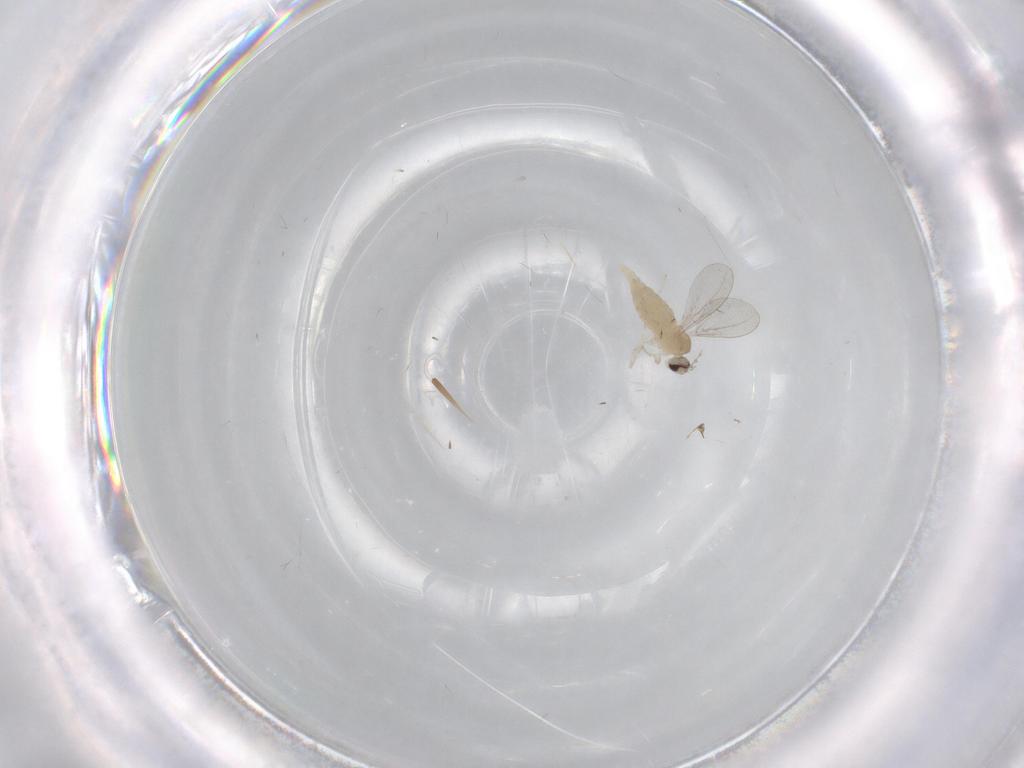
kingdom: Animalia
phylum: Arthropoda
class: Insecta
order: Diptera
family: Cecidomyiidae
